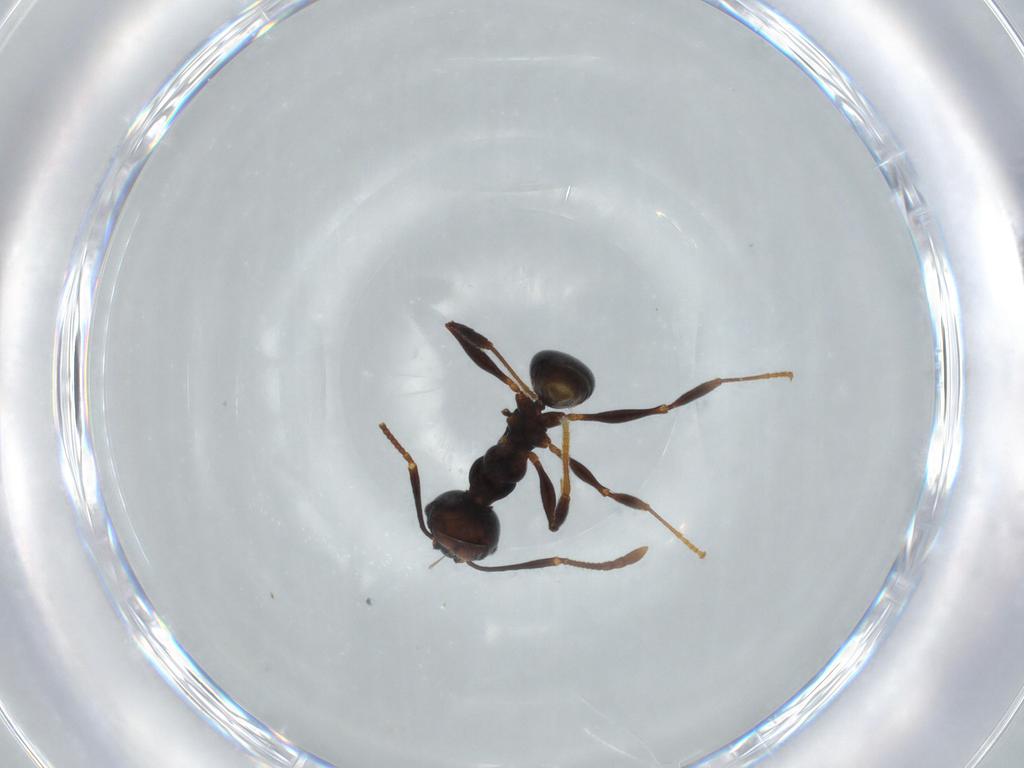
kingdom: Animalia
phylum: Arthropoda
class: Insecta
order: Hymenoptera
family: Formicidae
